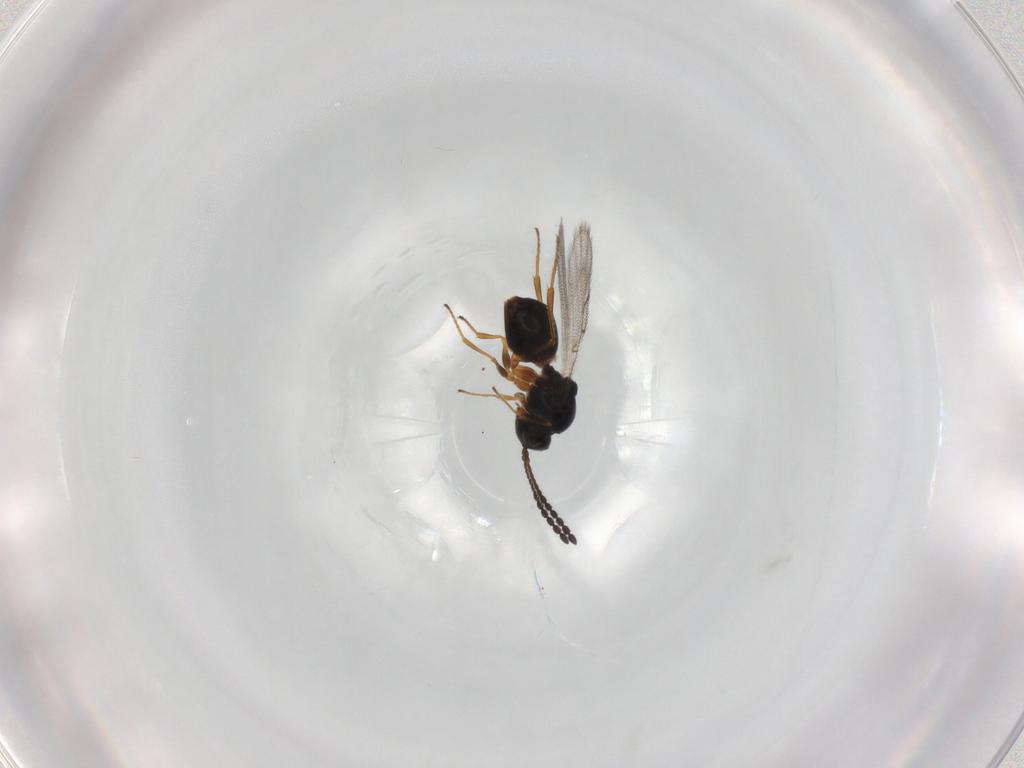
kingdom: Animalia
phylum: Arthropoda
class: Insecta
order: Hymenoptera
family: Figitidae
